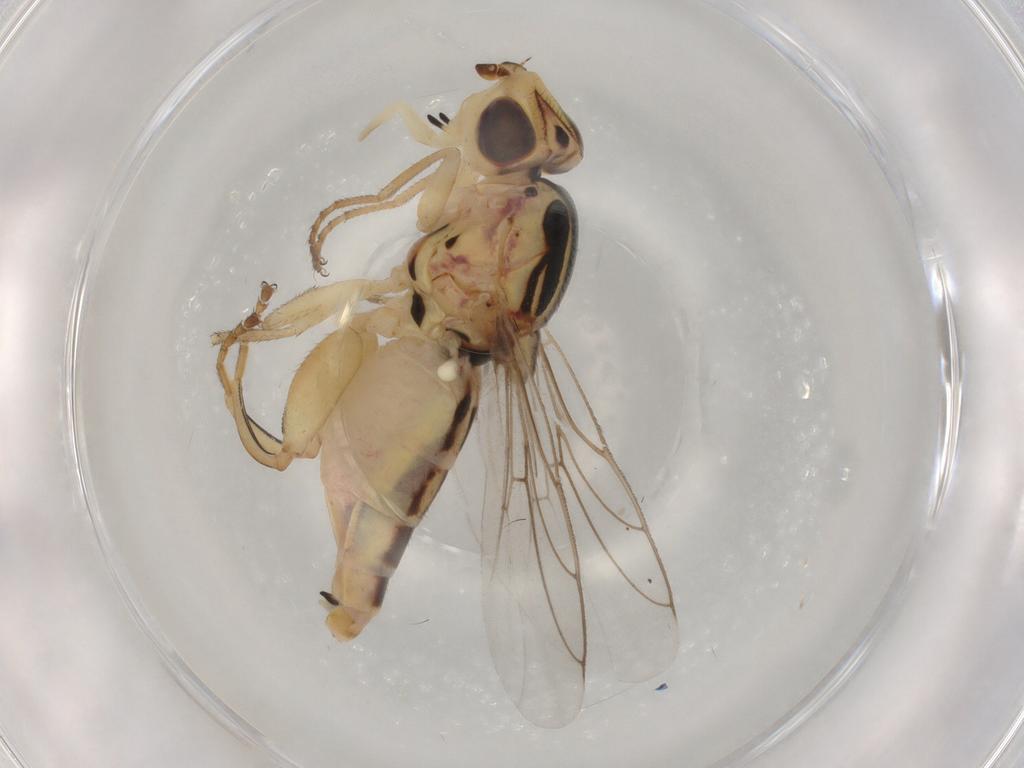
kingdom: Animalia
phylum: Arthropoda
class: Insecta
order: Diptera
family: Chloropidae
